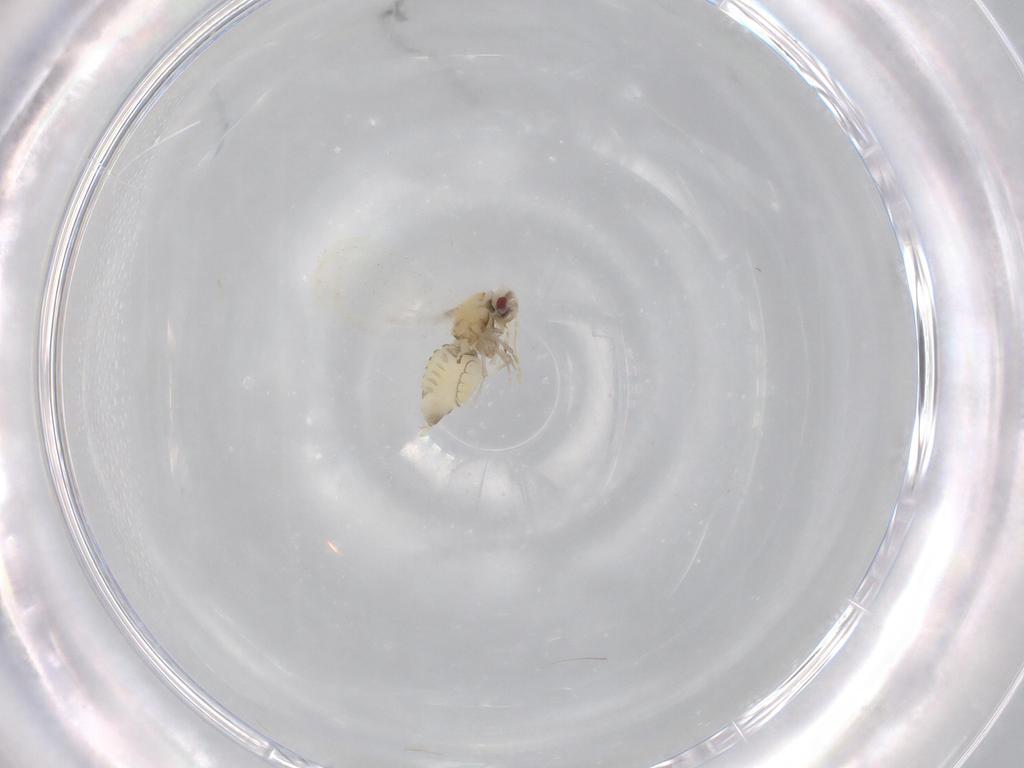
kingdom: Animalia
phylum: Arthropoda
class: Insecta
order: Hemiptera
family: Aleyrodidae
